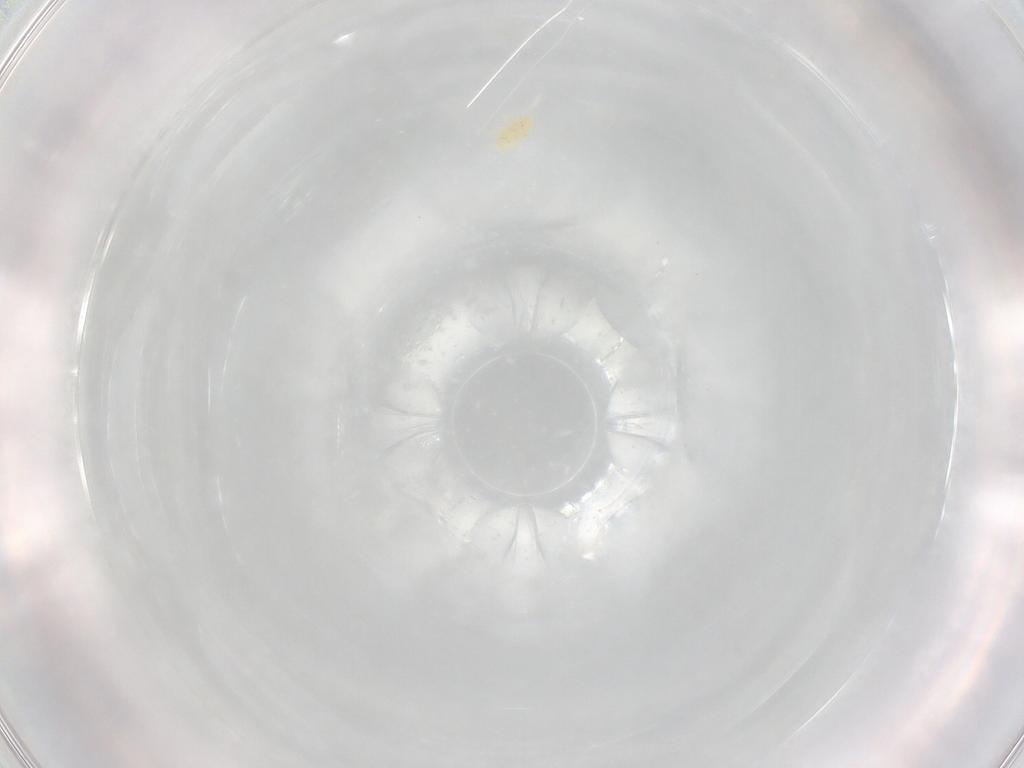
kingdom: Animalia
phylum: Arthropoda
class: Arachnida
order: Trombidiformes
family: Eupodidae
